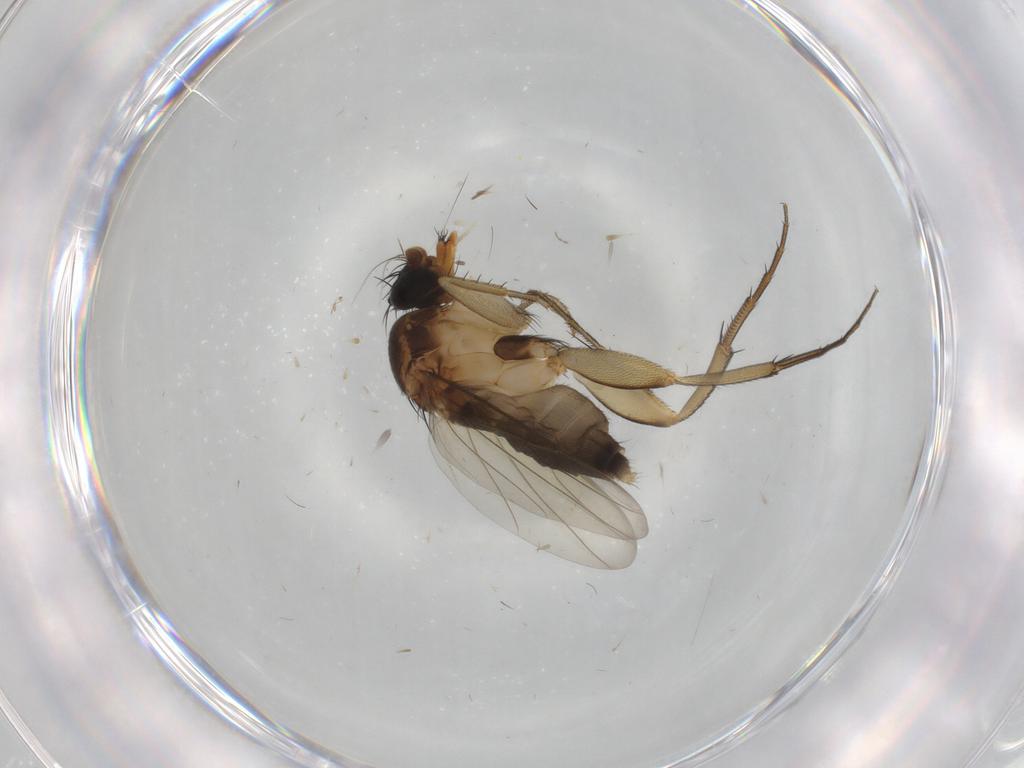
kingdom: Animalia
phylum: Arthropoda
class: Insecta
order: Diptera
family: Phoridae
